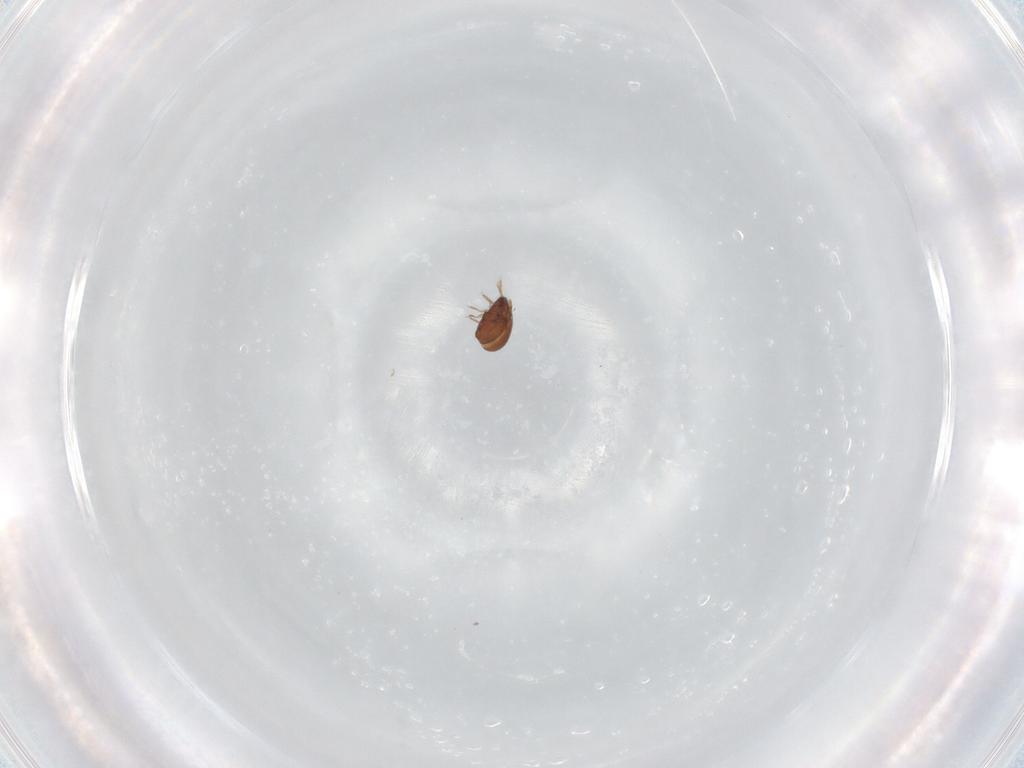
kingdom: Animalia
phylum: Arthropoda
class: Arachnida
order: Sarcoptiformes
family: Tegoribatidae
